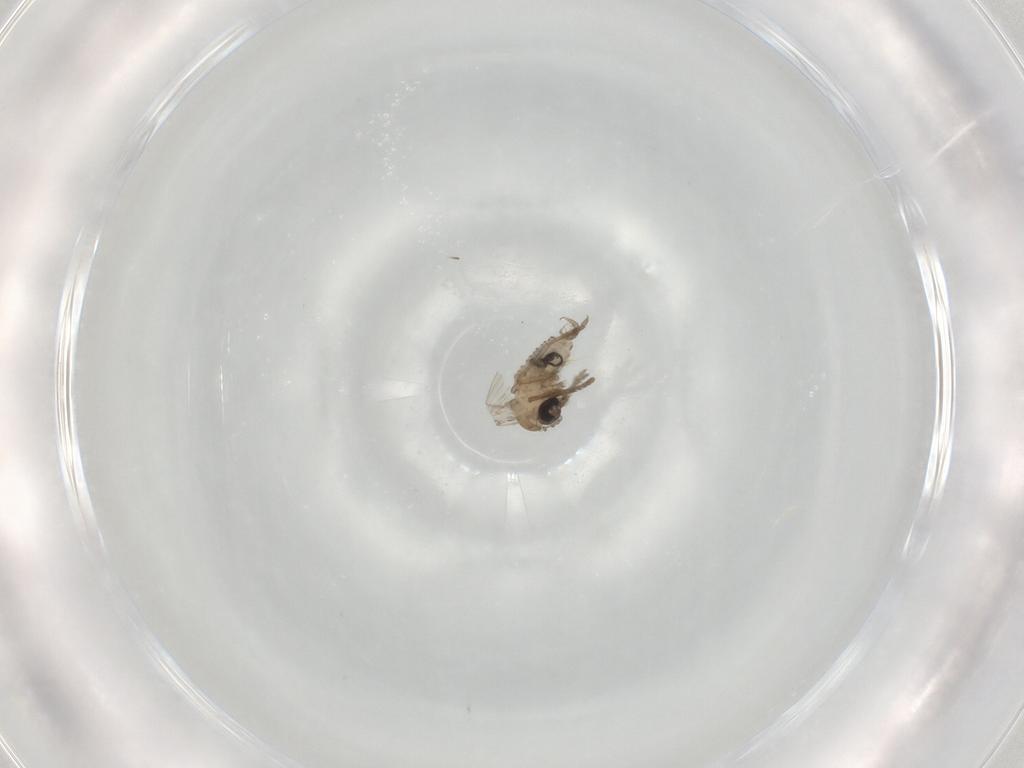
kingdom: Animalia
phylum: Arthropoda
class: Insecta
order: Diptera
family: Psychodidae
